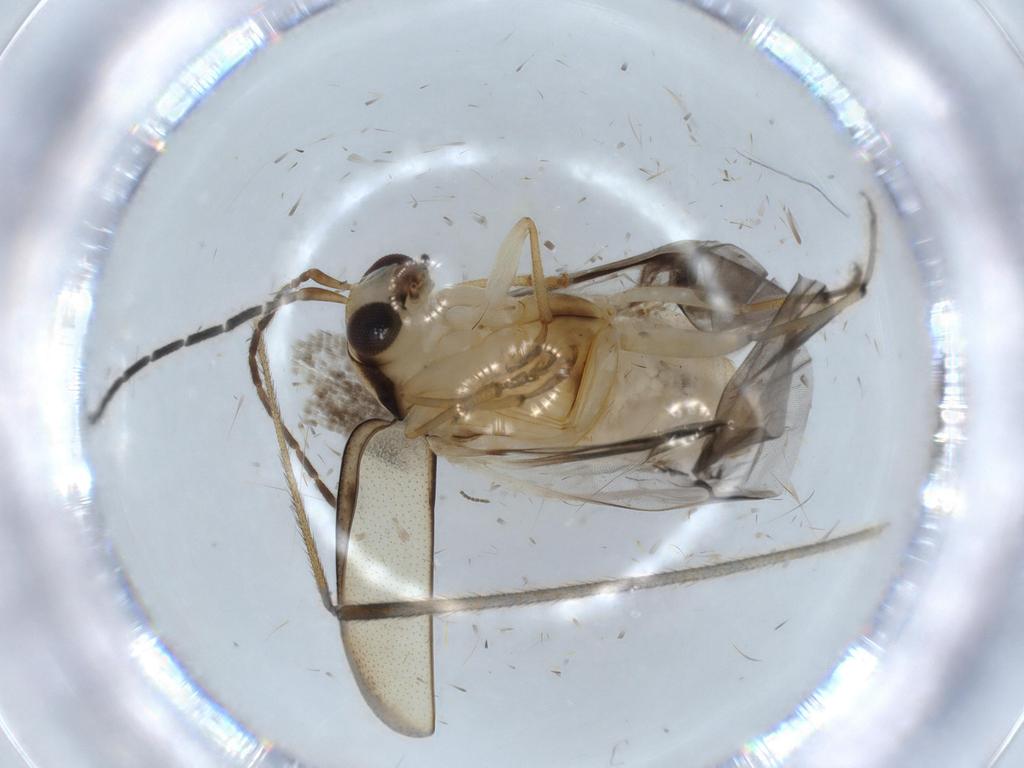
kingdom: Animalia
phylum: Arthropoda
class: Insecta
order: Coleoptera
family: Chrysomelidae
